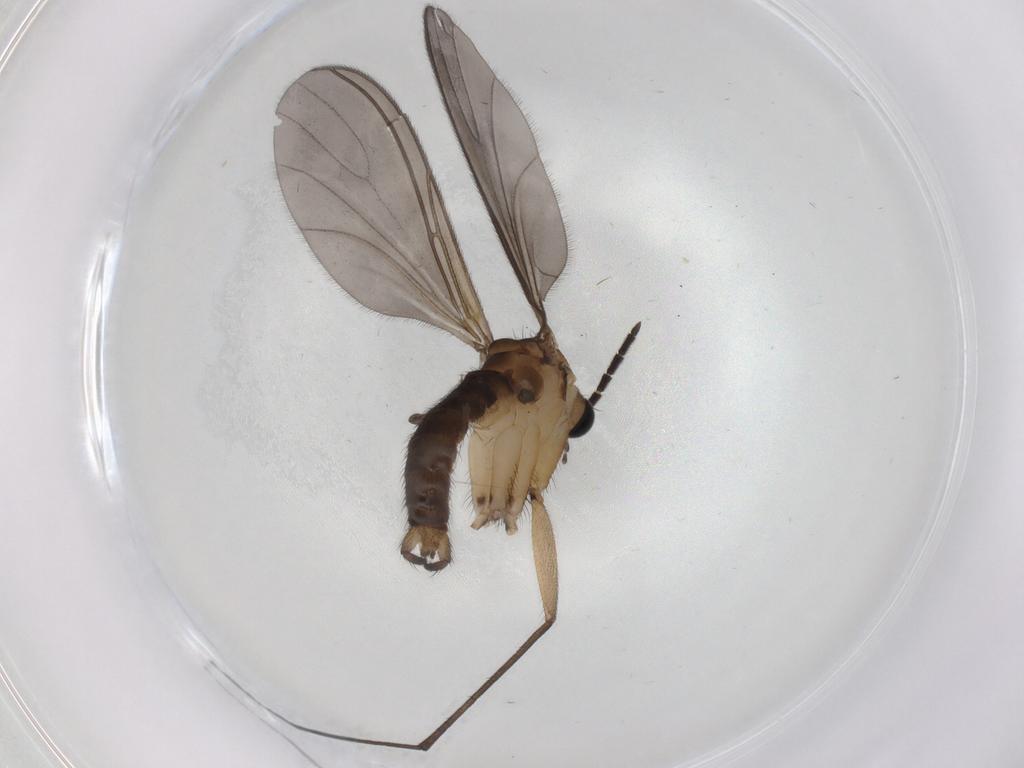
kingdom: Animalia
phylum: Arthropoda
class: Insecta
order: Diptera
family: Sciaridae
